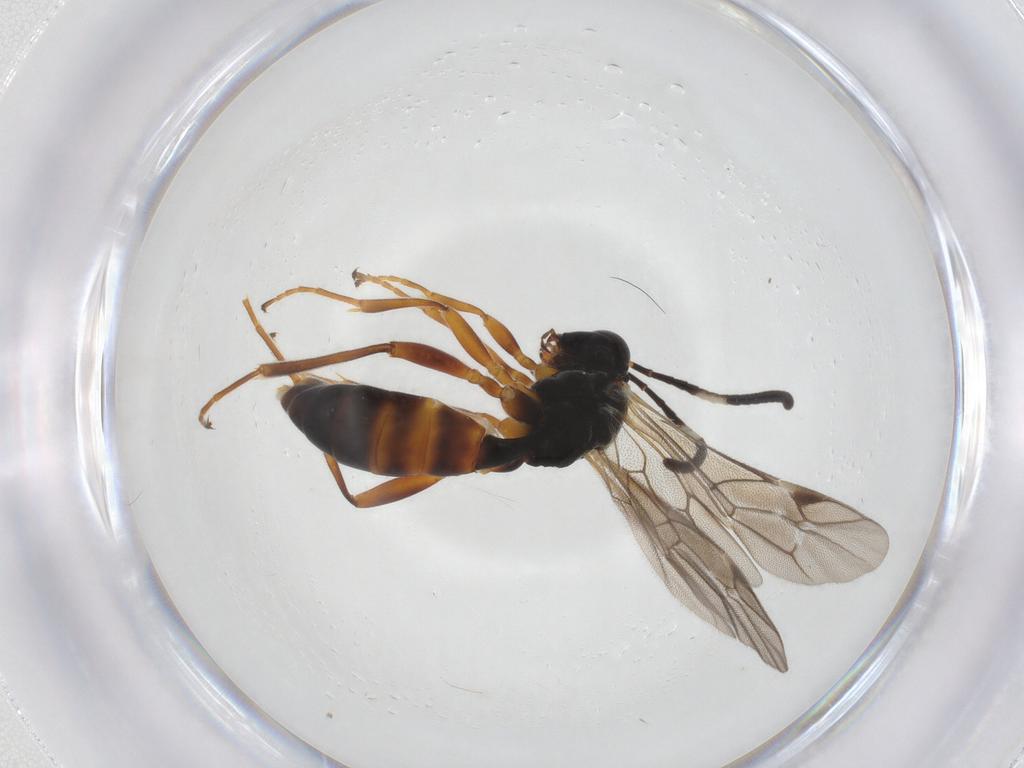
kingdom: Animalia
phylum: Arthropoda
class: Insecta
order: Hymenoptera
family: Ichneumonidae
